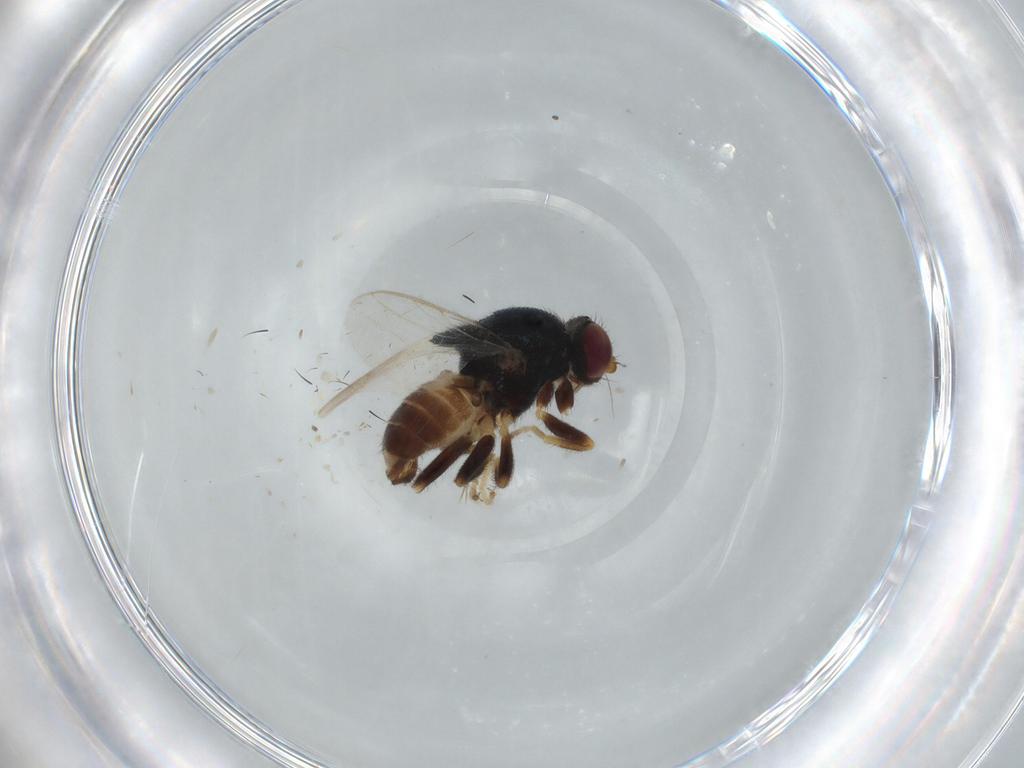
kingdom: Animalia
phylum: Arthropoda
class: Insecta
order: Diptera
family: Chloropidae
